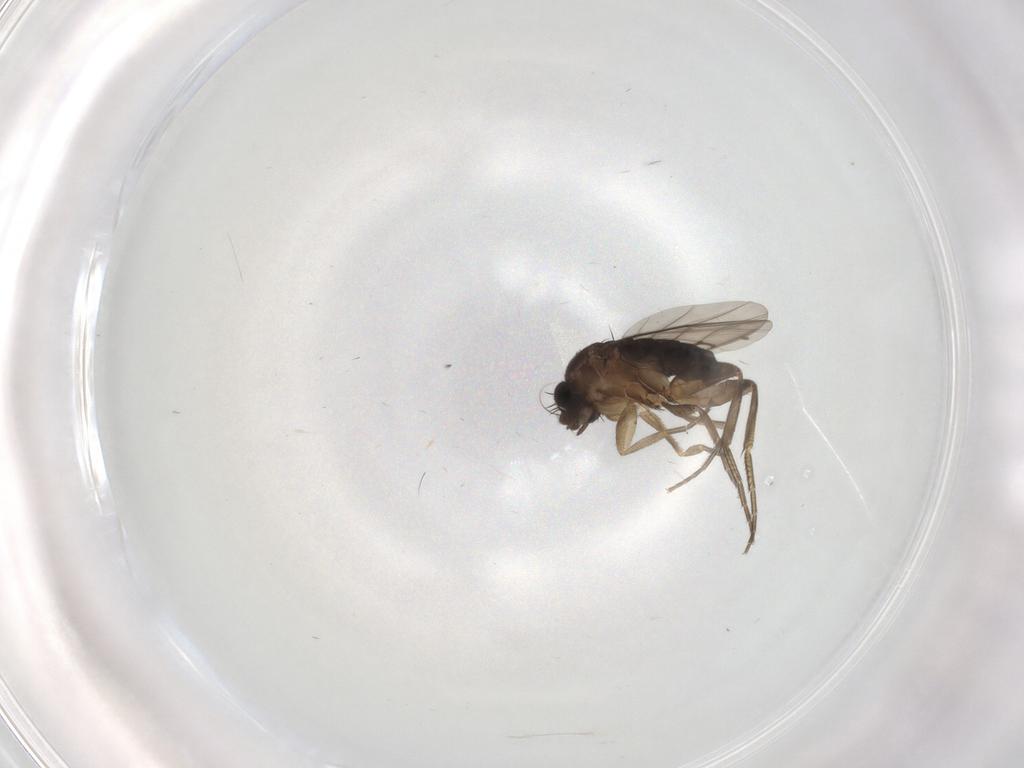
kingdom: Animalia
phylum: Arthropoda
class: Insecta
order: Diptera
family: Phoridae
